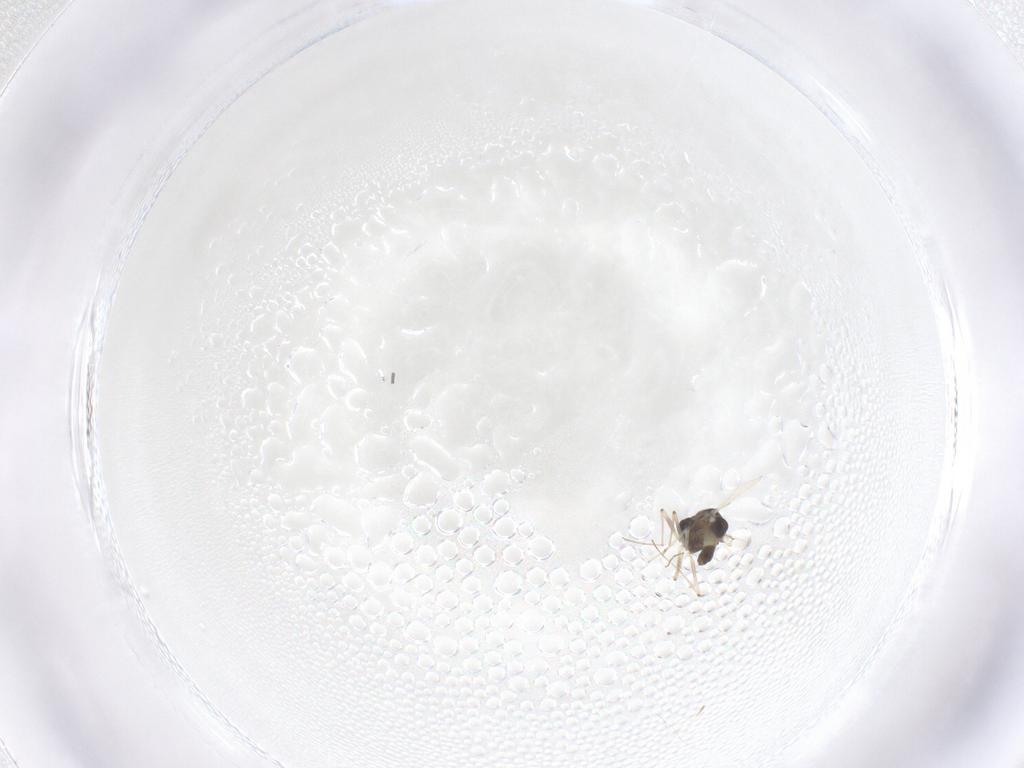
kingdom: Animalia
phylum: Arthropoda
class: Insecta
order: Diptera
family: Chironomidae
